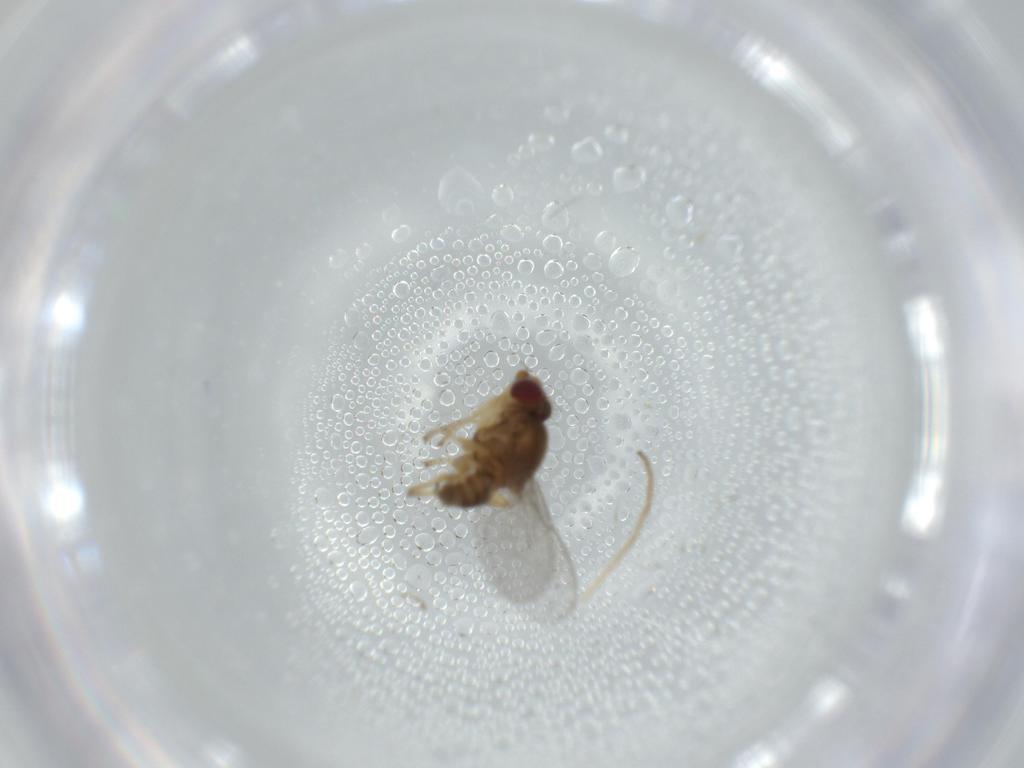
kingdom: Animalia
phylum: Arthropoda
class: Insecta
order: Diptera
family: Chloropidae
